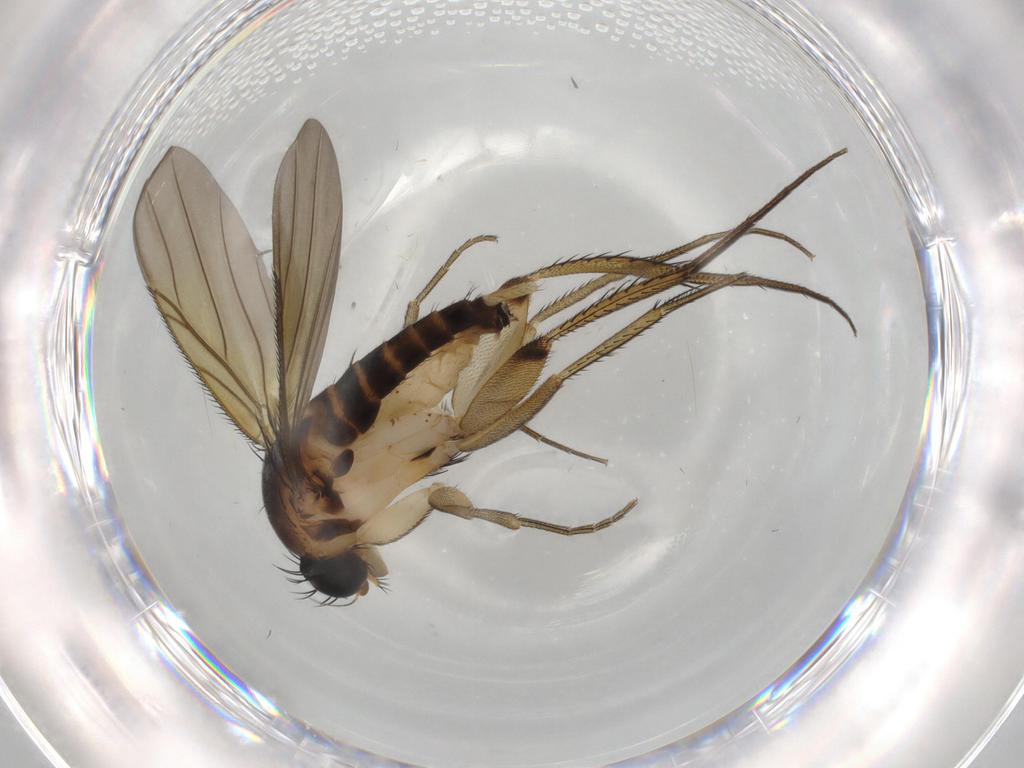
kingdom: Animalia
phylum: Arthropoda
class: Insecta
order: Diptera
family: Phoridae
